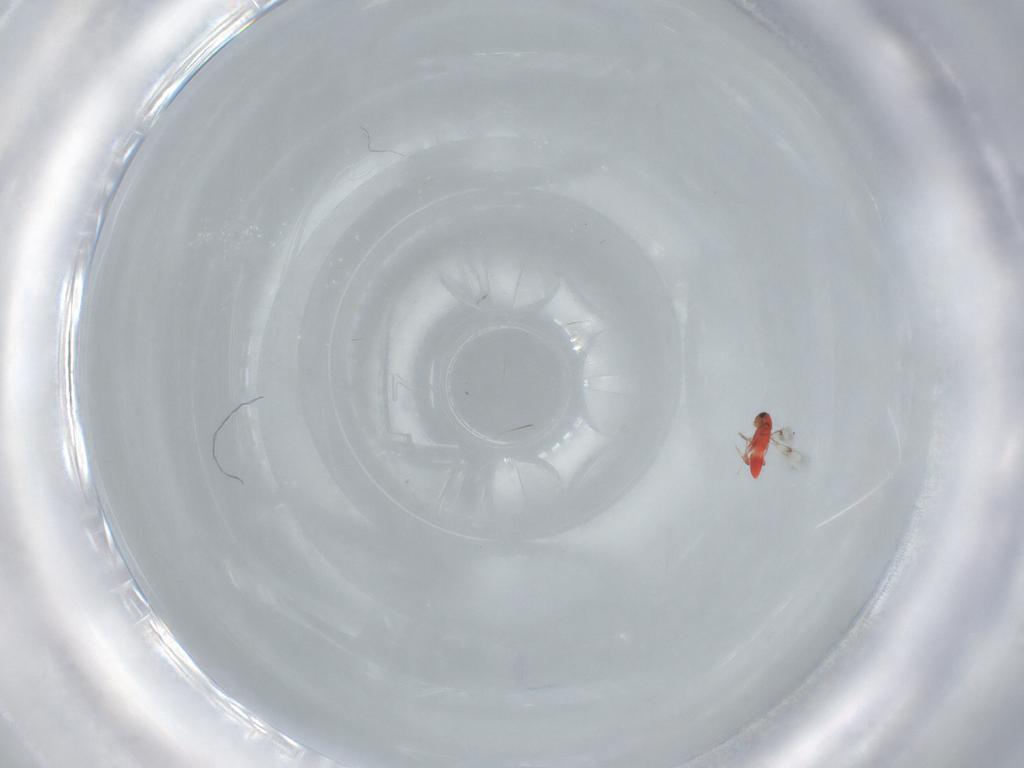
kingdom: Animalia
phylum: Arthropoda
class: Insecta
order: Hymenoptera
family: Trichogrammatidae
